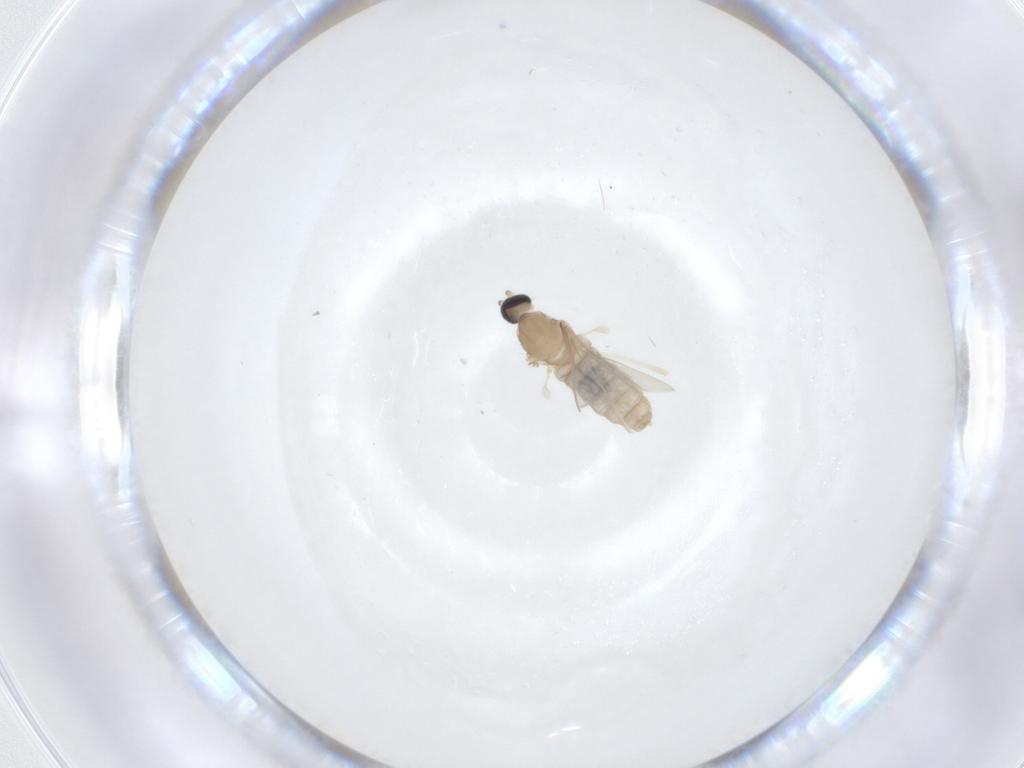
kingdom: Animalia
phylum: Arthropoda
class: Insecta
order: Diptera
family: Cecidomyiidae
